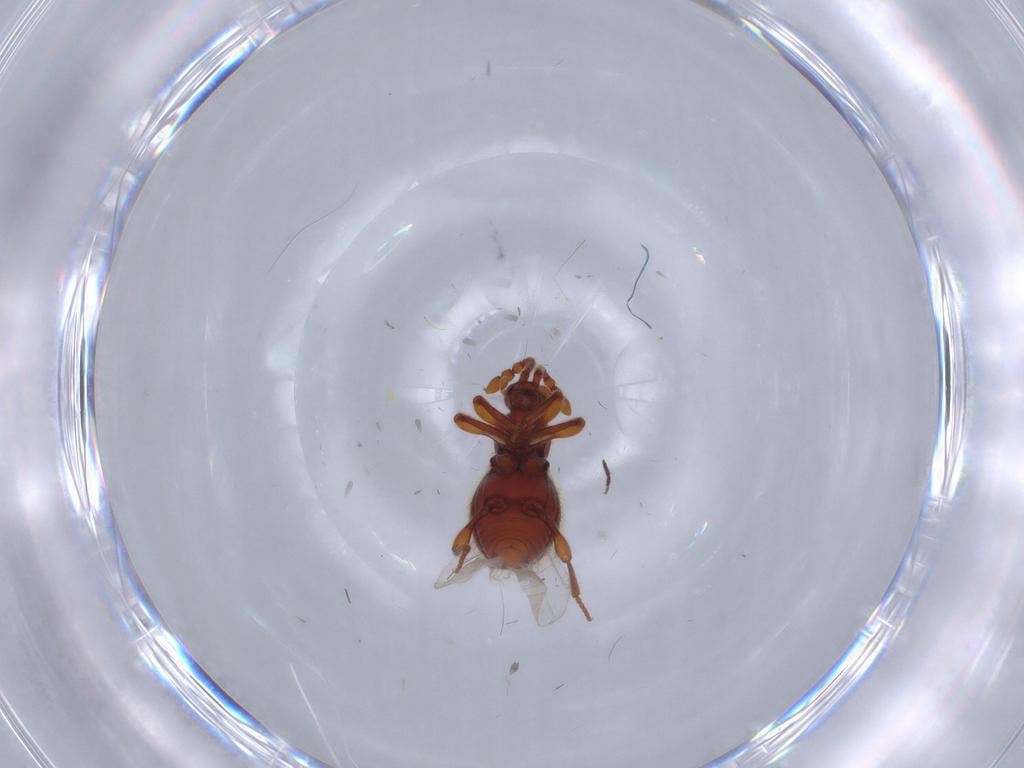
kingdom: Animalia
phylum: Arthropoda
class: Insecta
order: Coleoptera
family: Staphylinidae
